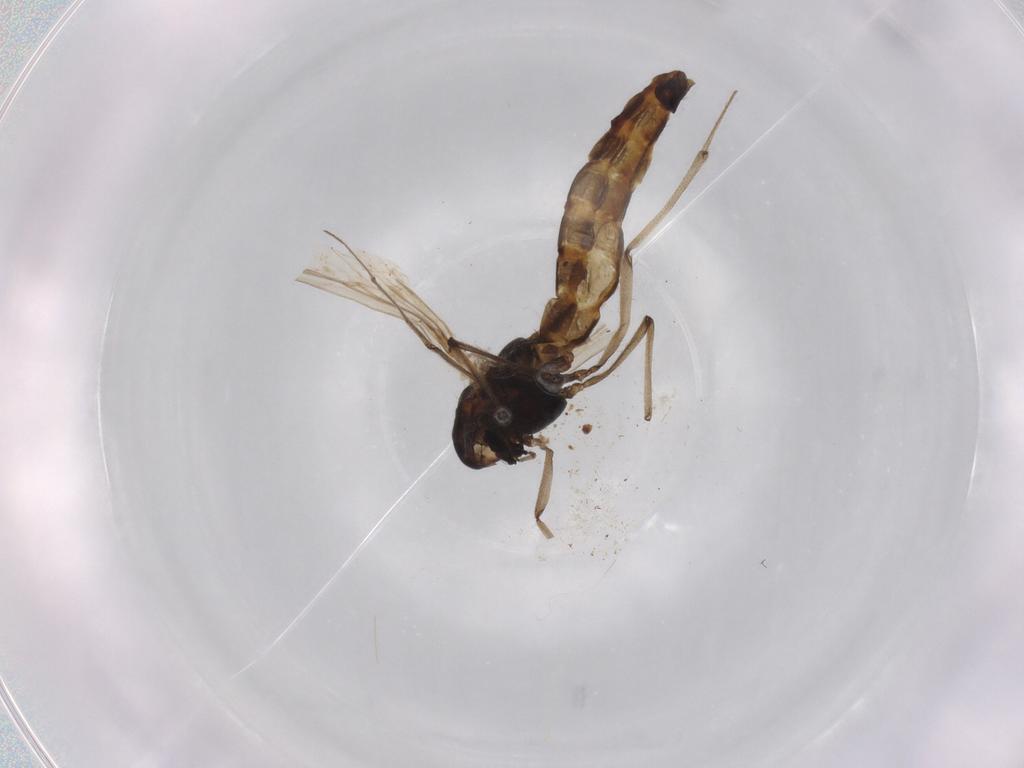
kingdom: Animalia
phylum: Arthropoda
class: Insecta
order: Diptera
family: Chironomidae
